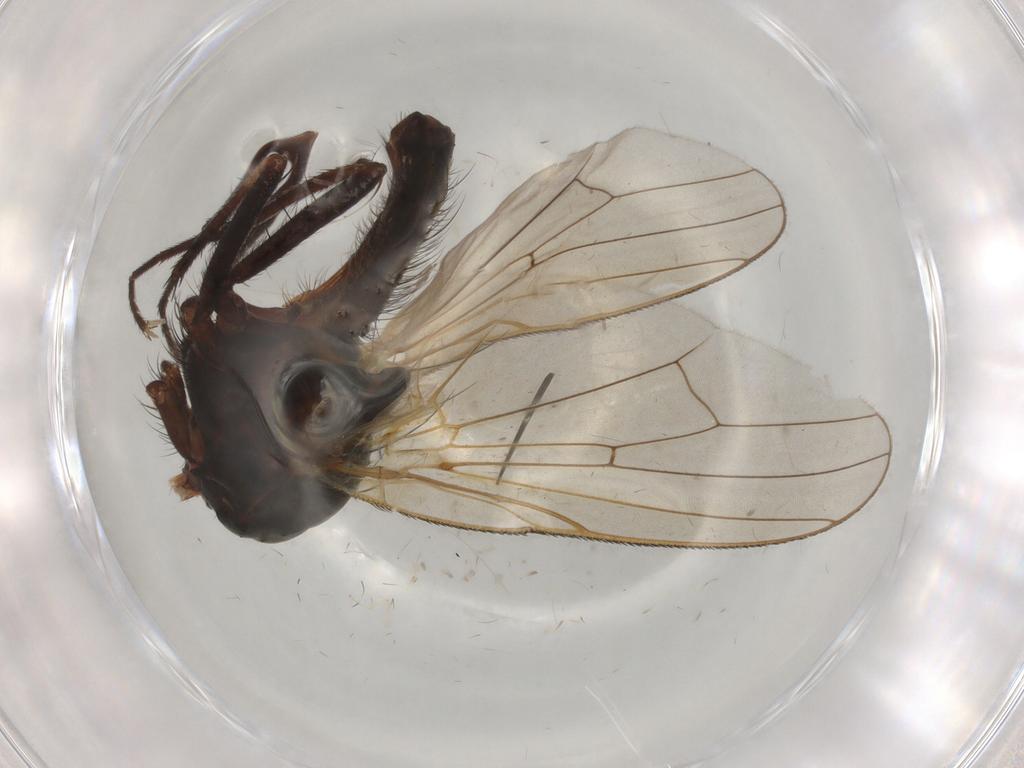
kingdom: Animalia
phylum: Arthropoda
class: Insecta
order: Diptera
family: Anthomyiidae
